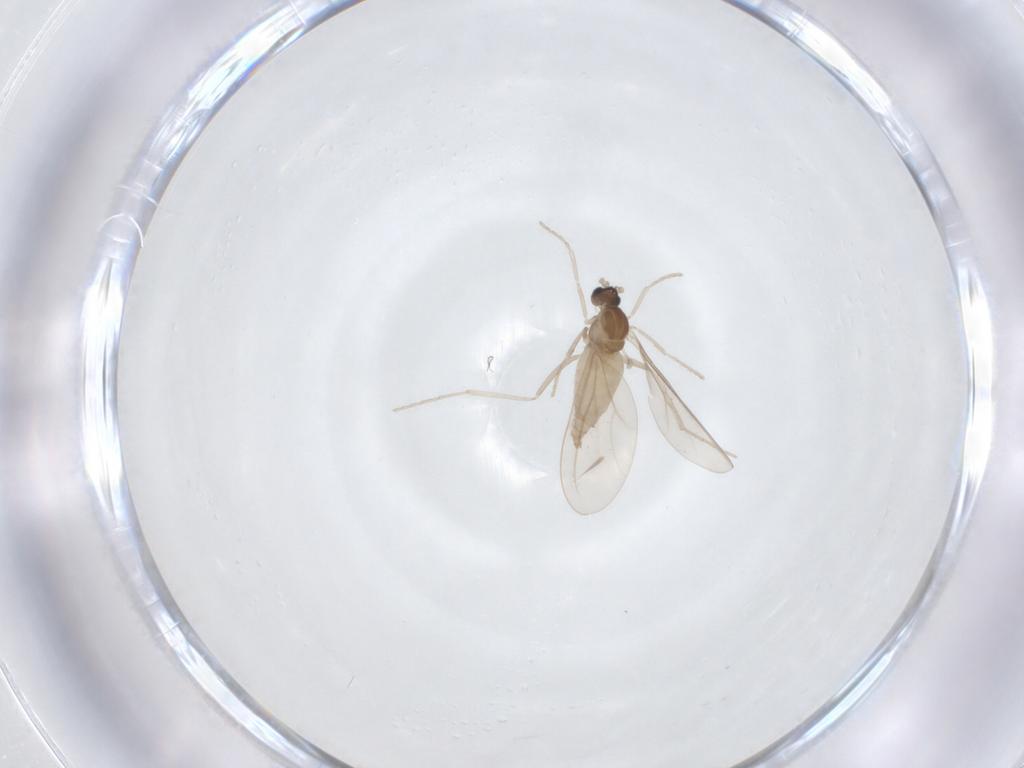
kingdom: Animalia
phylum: Arthropoda
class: Insecta
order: Diptera
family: Cecidomyiidae
